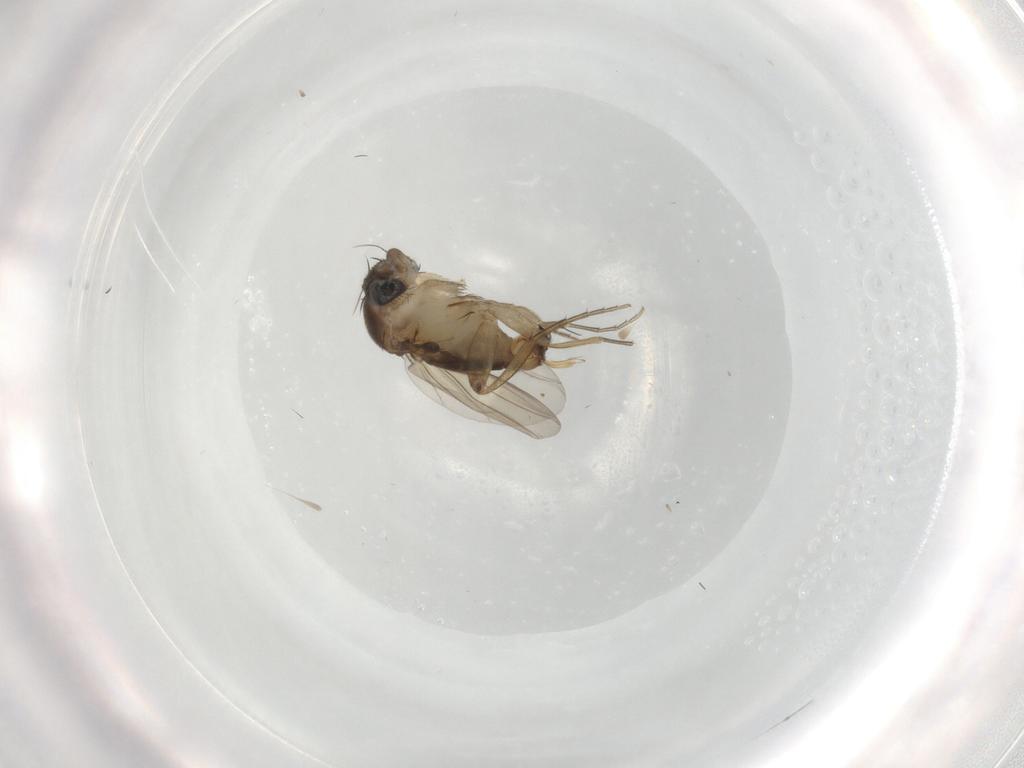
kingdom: Animalia
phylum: Arthropoda
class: Insecta
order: Diptera
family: Phoridae
